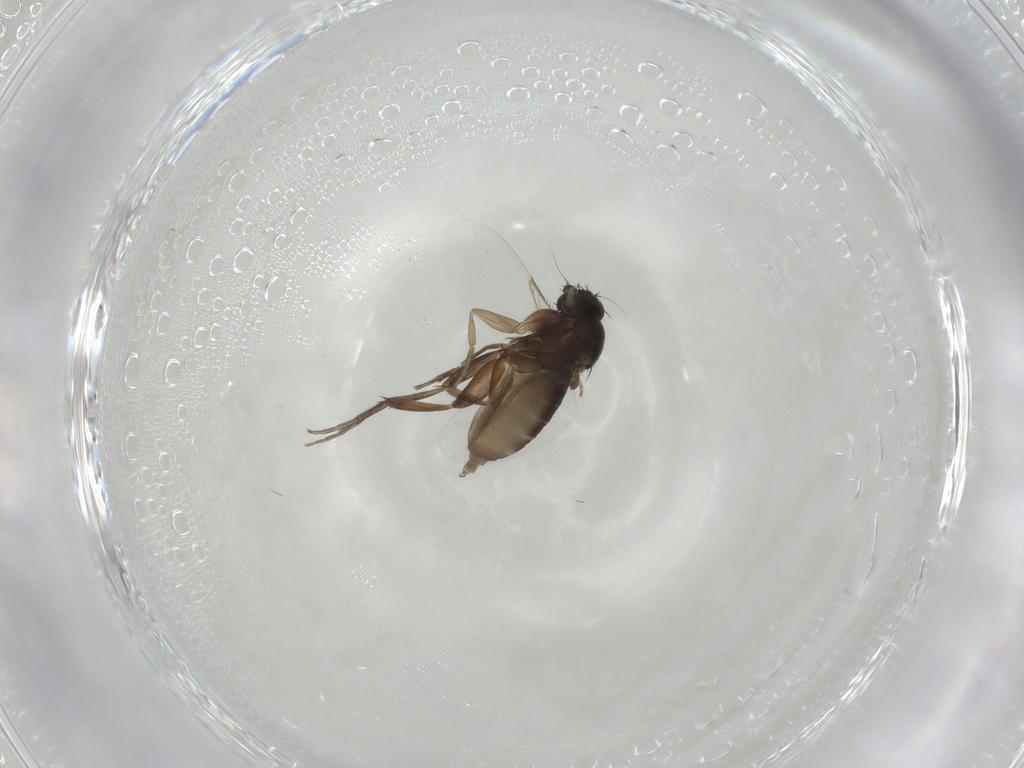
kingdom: Animalia
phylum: Arthropoda
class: Insecta
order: Diptera
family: Phoridae
